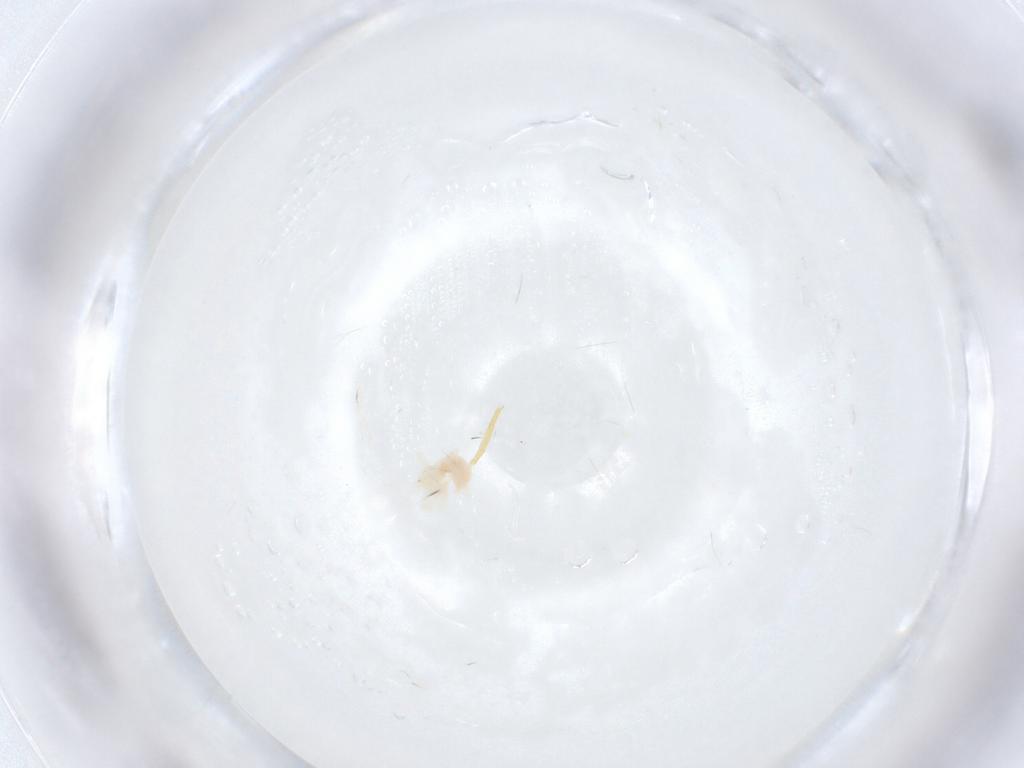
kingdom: Animalia
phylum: Arthropoda
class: Arachnida
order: Trombidiformes
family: Anystidae
